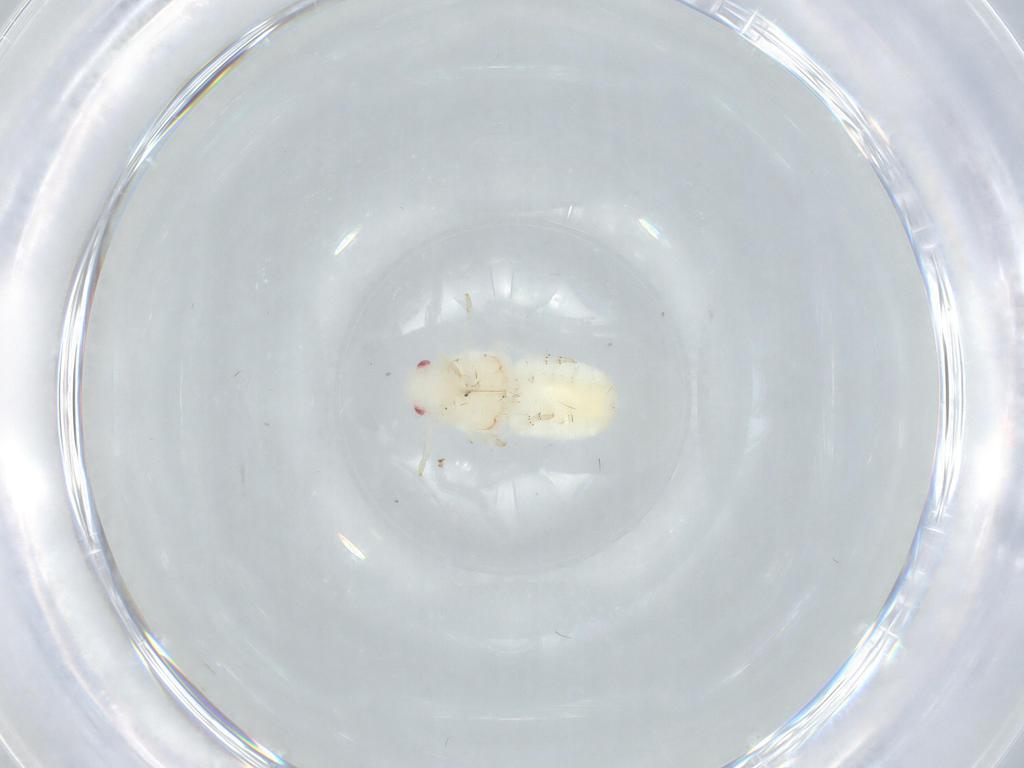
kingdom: Animalia
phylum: Arthropoda
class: Insecta
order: Hemiptera
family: Flatidae
